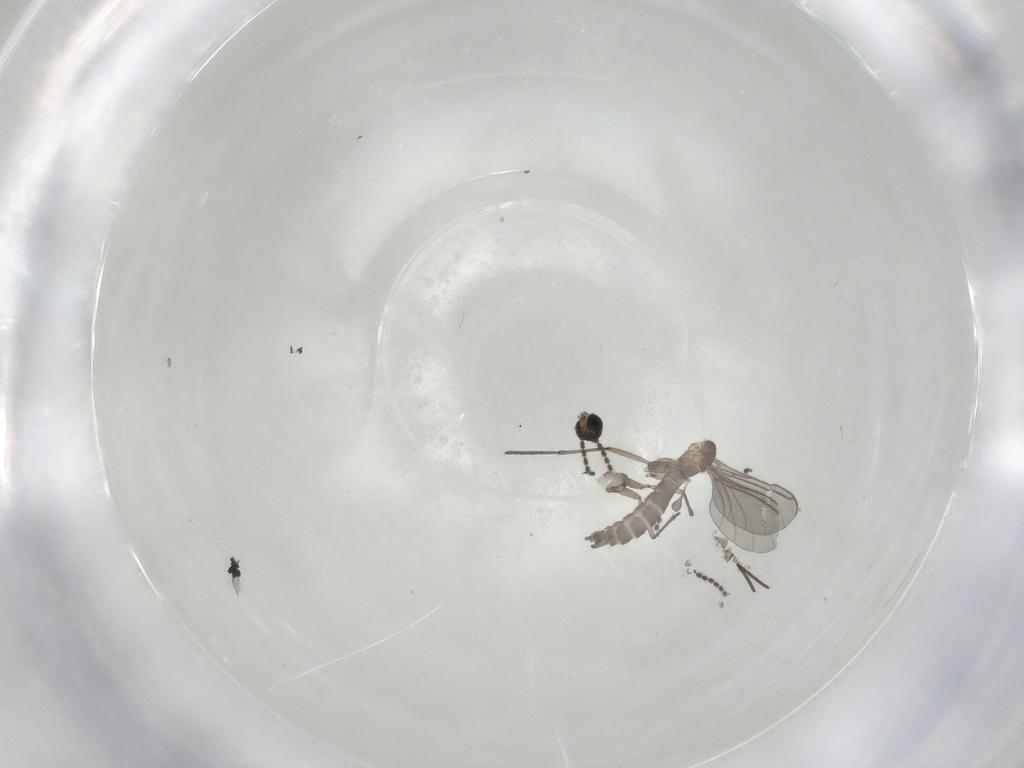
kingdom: Animalia
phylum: Arthropoda
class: Insecta
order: Diptera
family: Sciaridae
